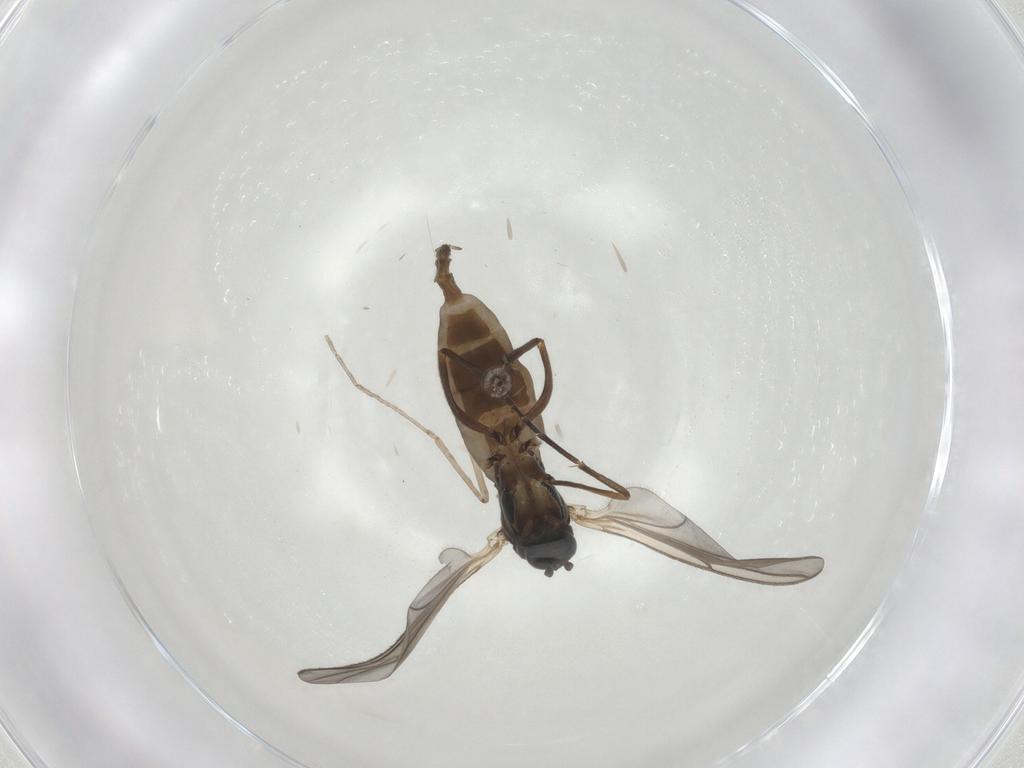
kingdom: Animalia
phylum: Arthropoda
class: Insecta
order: Diptera
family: Sciaridae
